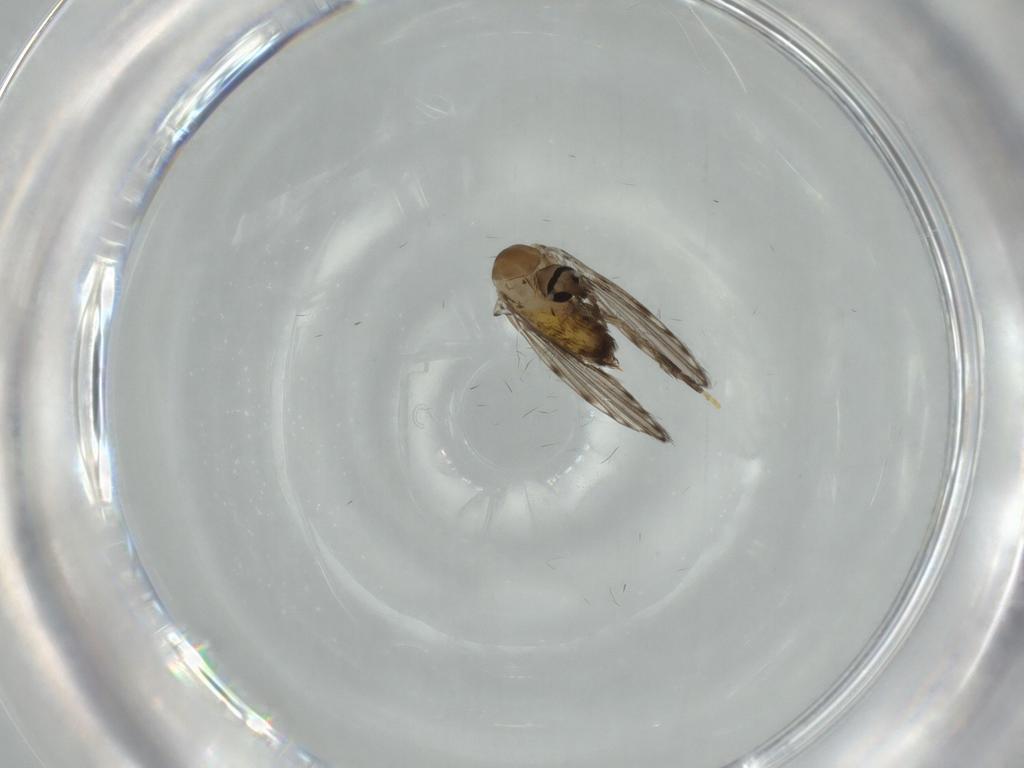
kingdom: Animalia
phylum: Arthropoda
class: Insecta
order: Diptera
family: Psychodidae
